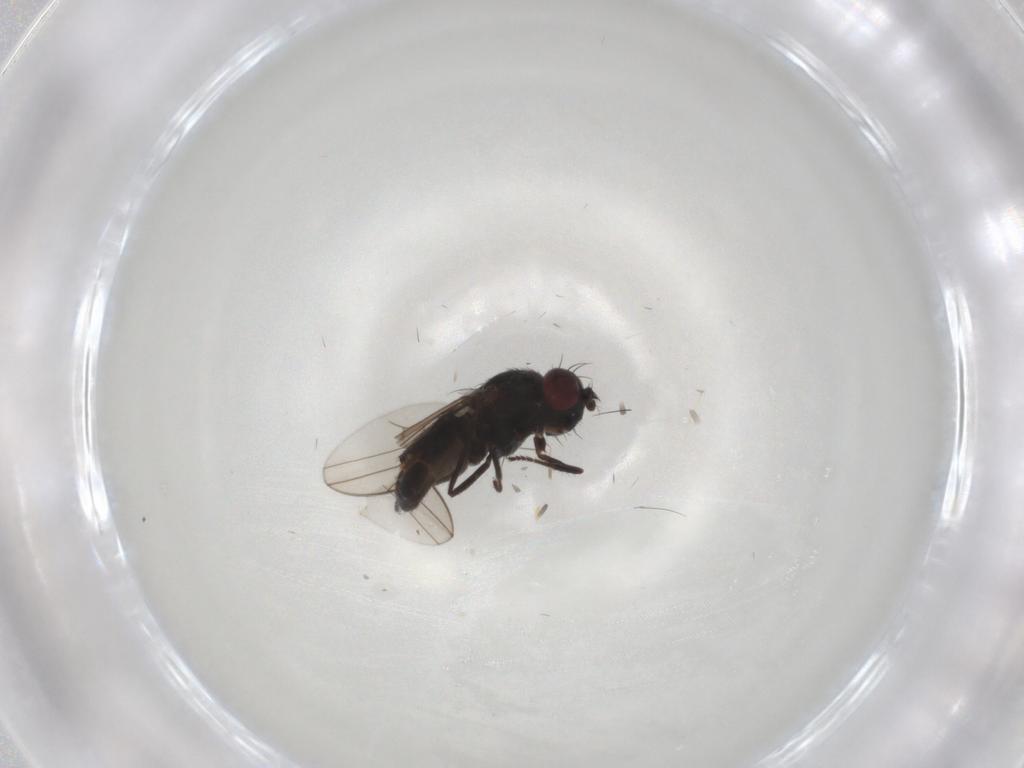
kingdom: Animalia
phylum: Arthropoda
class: Insecta
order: Diptera
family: Ephydridae
